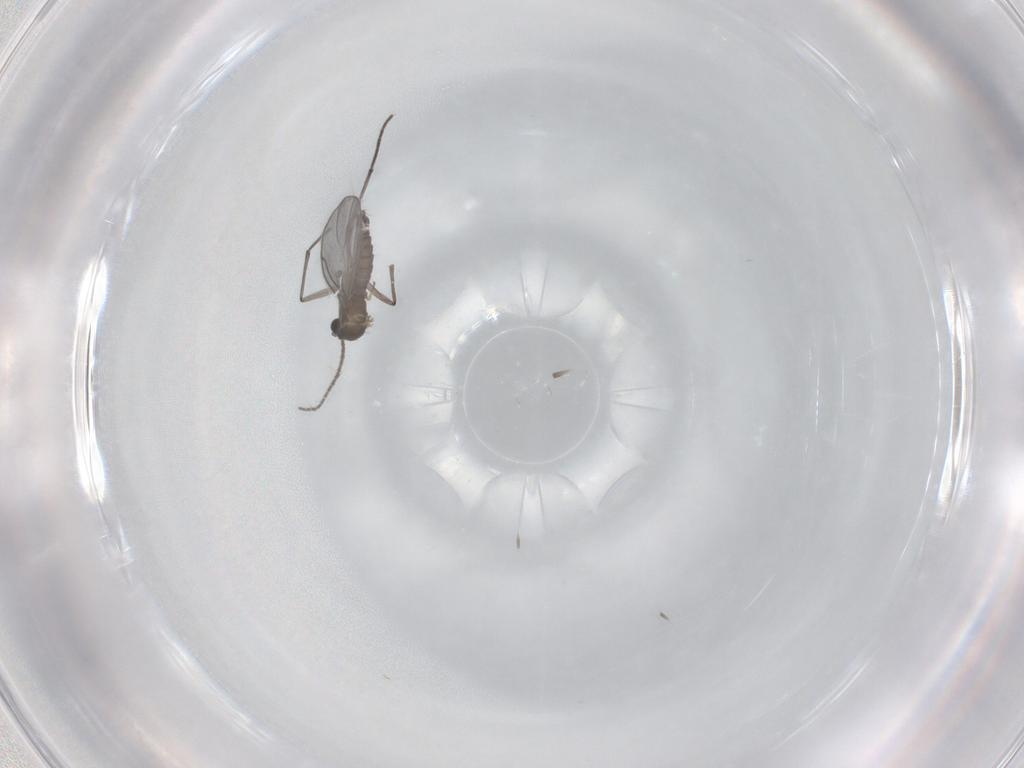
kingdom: Animalia
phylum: Arthropoda
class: Insecta
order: Diptera
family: Sciaridae
